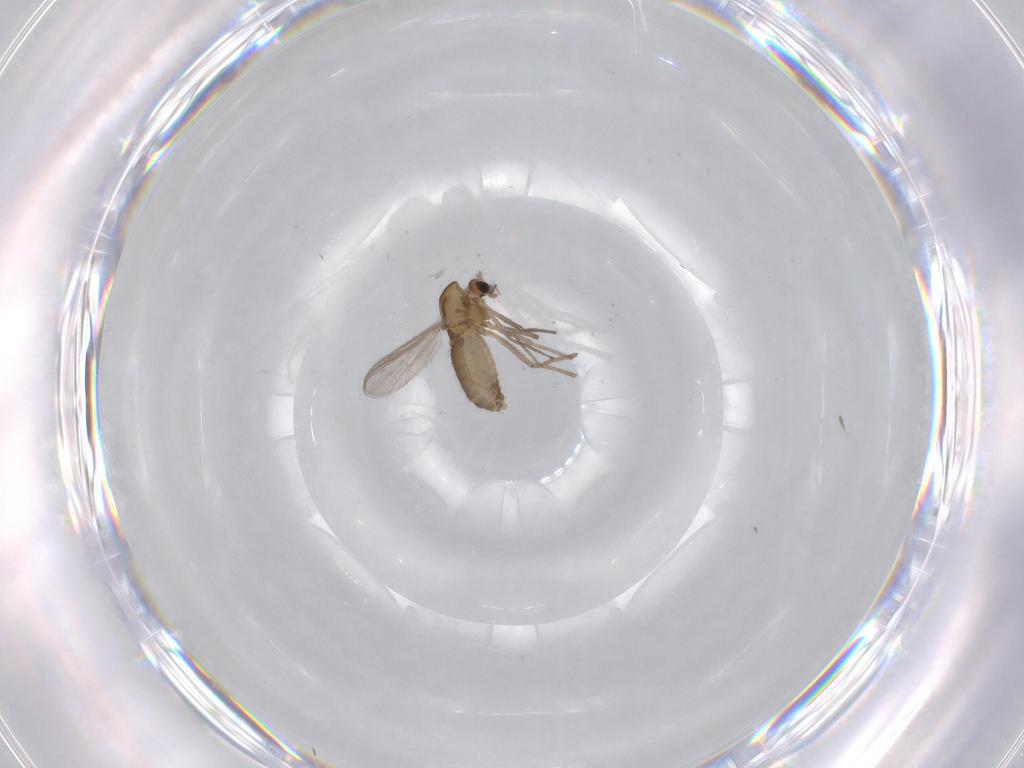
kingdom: Animalia
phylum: Arthropoda
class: Insecta
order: Diptera
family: Chironomidae
